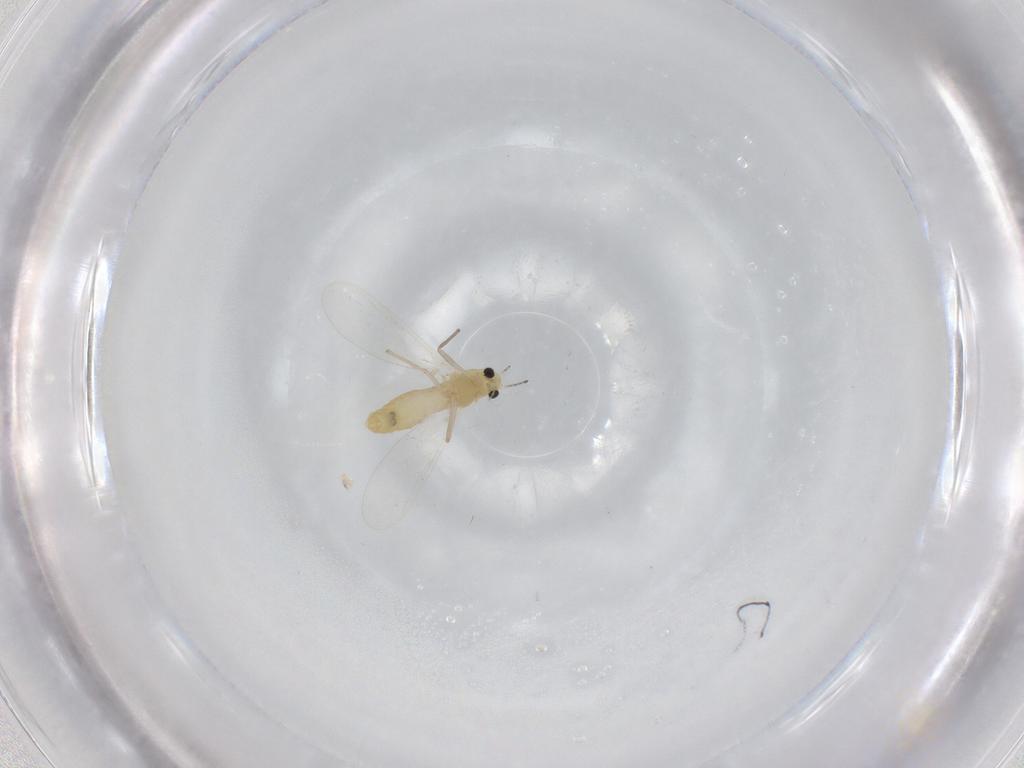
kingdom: Animalia
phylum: Arthropoda
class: Insecta
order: Diptera
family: Chironomidae
